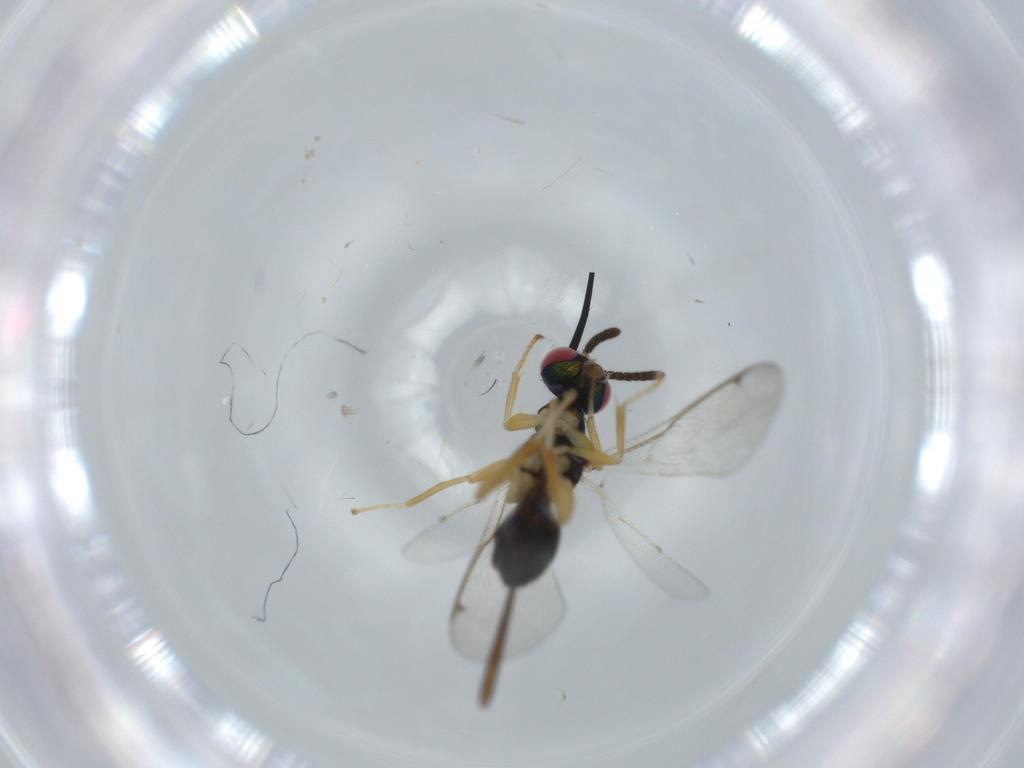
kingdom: Animalia
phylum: Arthropoda
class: Insecta
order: Hymenoptera
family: Torymidae
